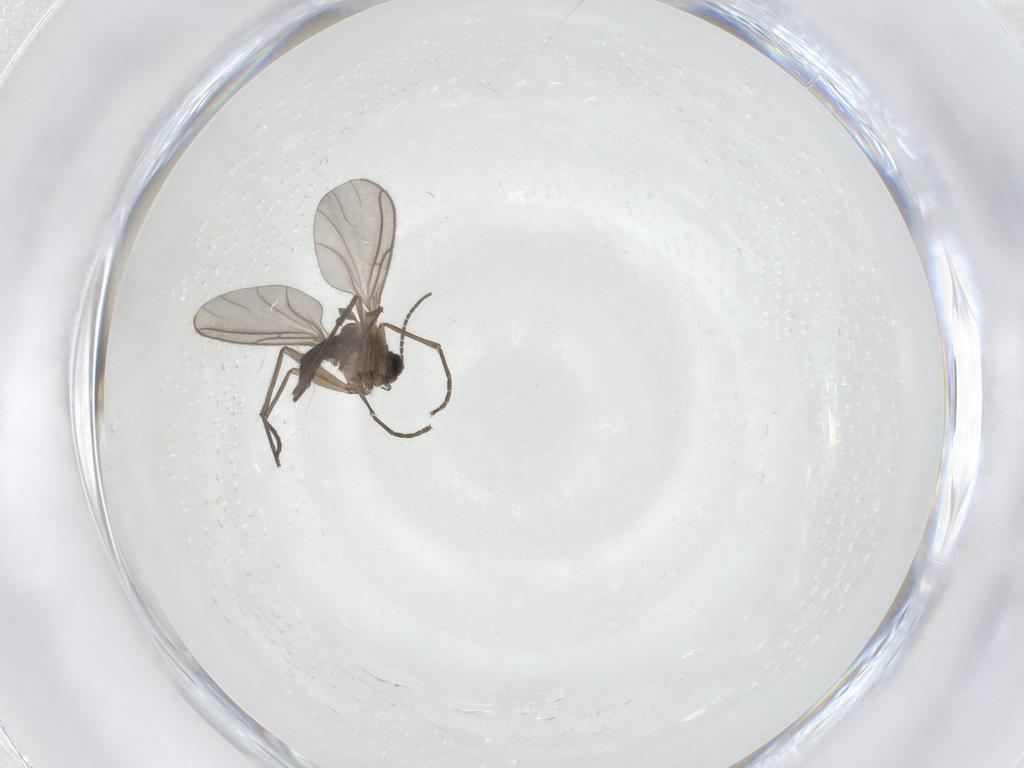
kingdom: Animalia
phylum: Arthropoda
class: Insecta
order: Diptera
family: Sciaridae
